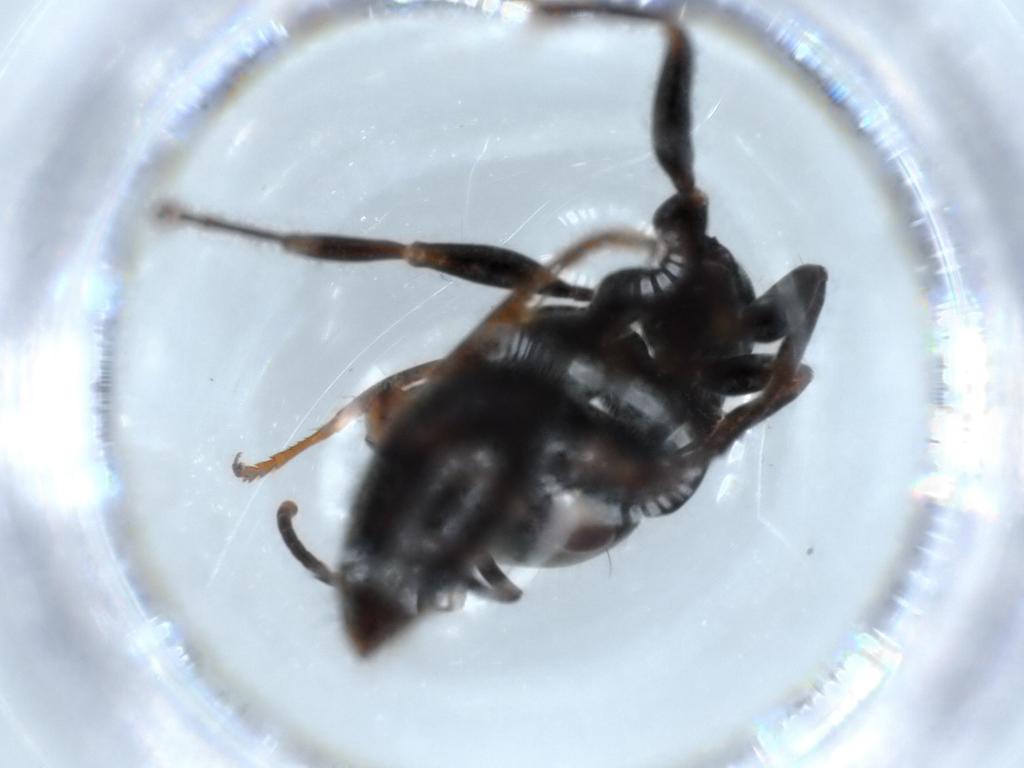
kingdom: Animalia
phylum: Arthropoda
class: Insecta
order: Hymenoptera
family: Formicidae
